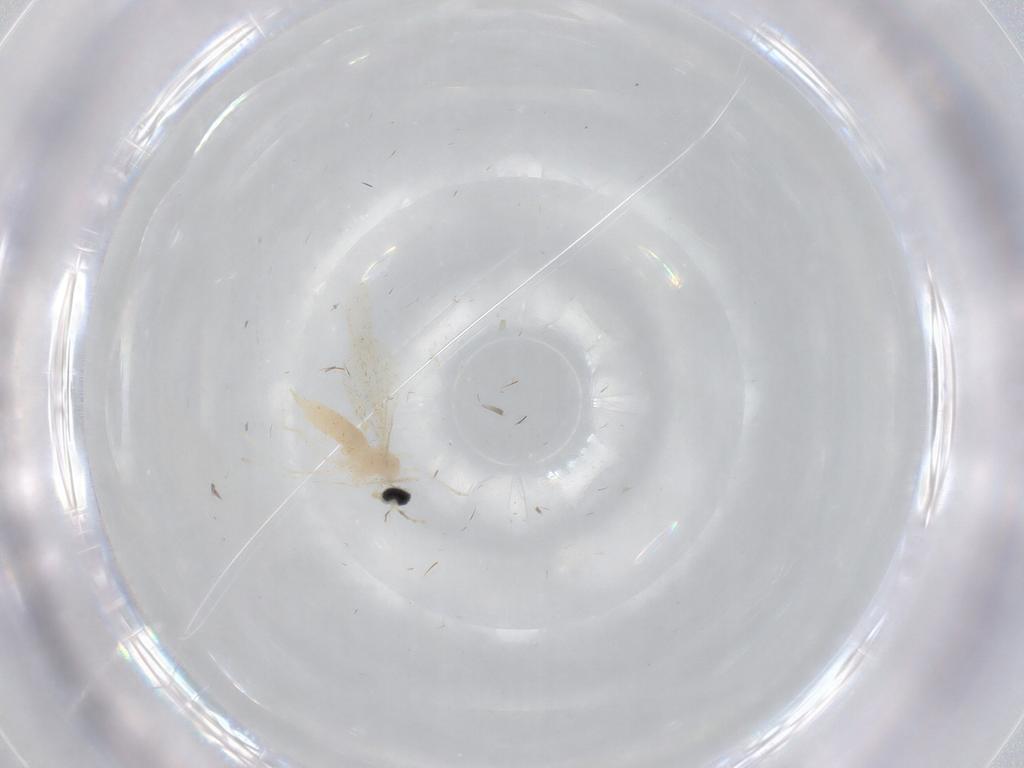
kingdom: Animalia
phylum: Arthropoda
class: Insecta
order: Diptera
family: Cecidomyiidae
